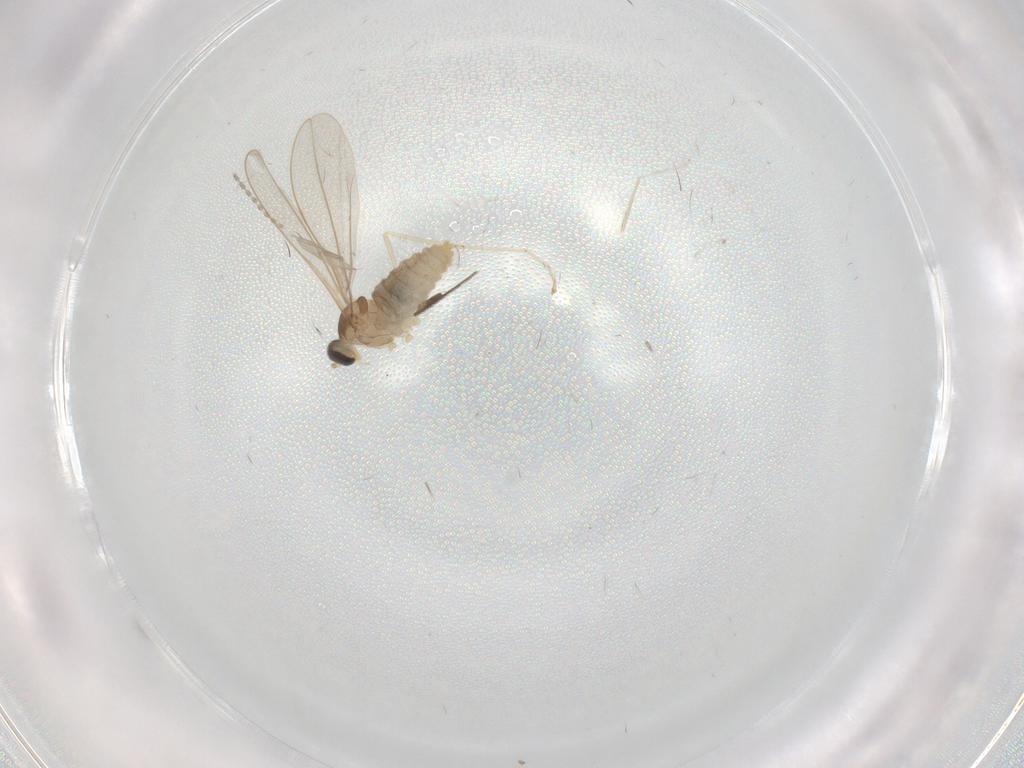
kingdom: Animalia
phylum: Arthropoda
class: Insecta
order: Diptera
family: Cecidomyiidae
